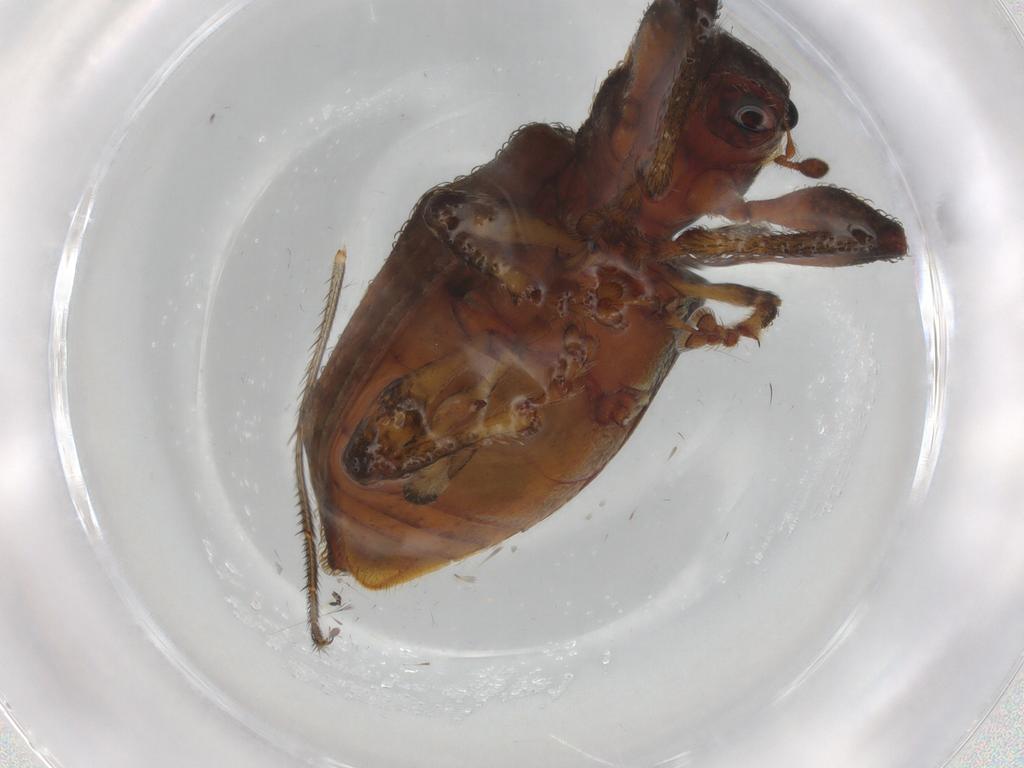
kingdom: Animalia
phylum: Arthropoda
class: Insecta
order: Coleoptera
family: Curculionidae
